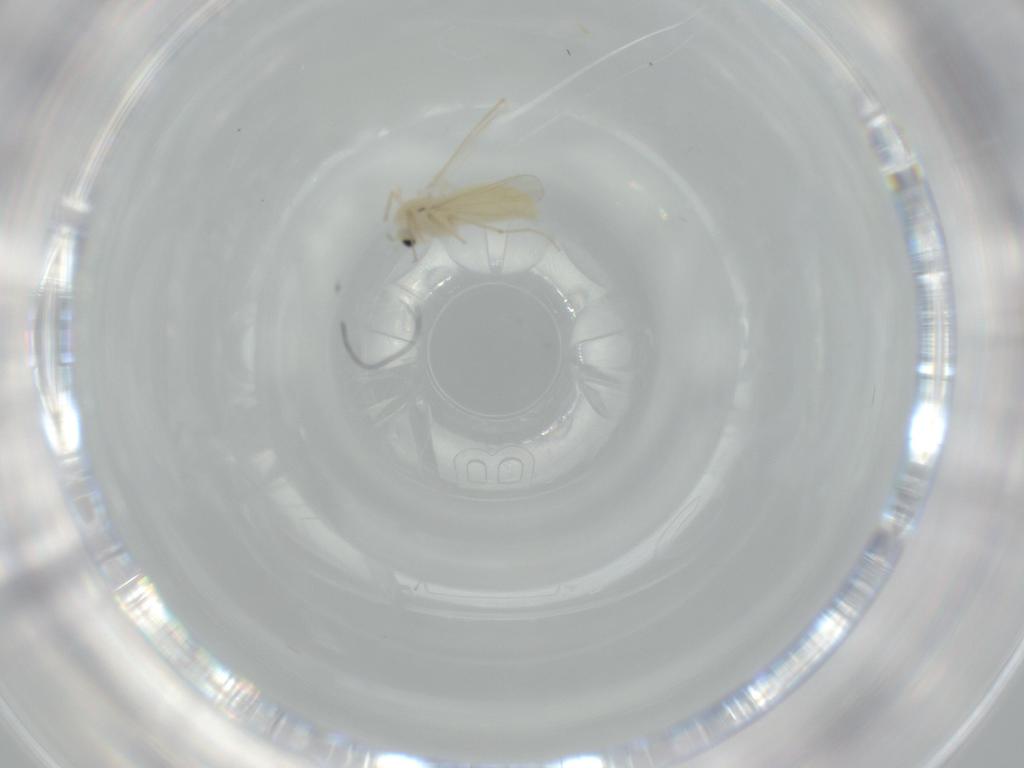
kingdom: Animalia
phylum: Arthropoda
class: Insecta
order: Diptera
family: Chironomidae
